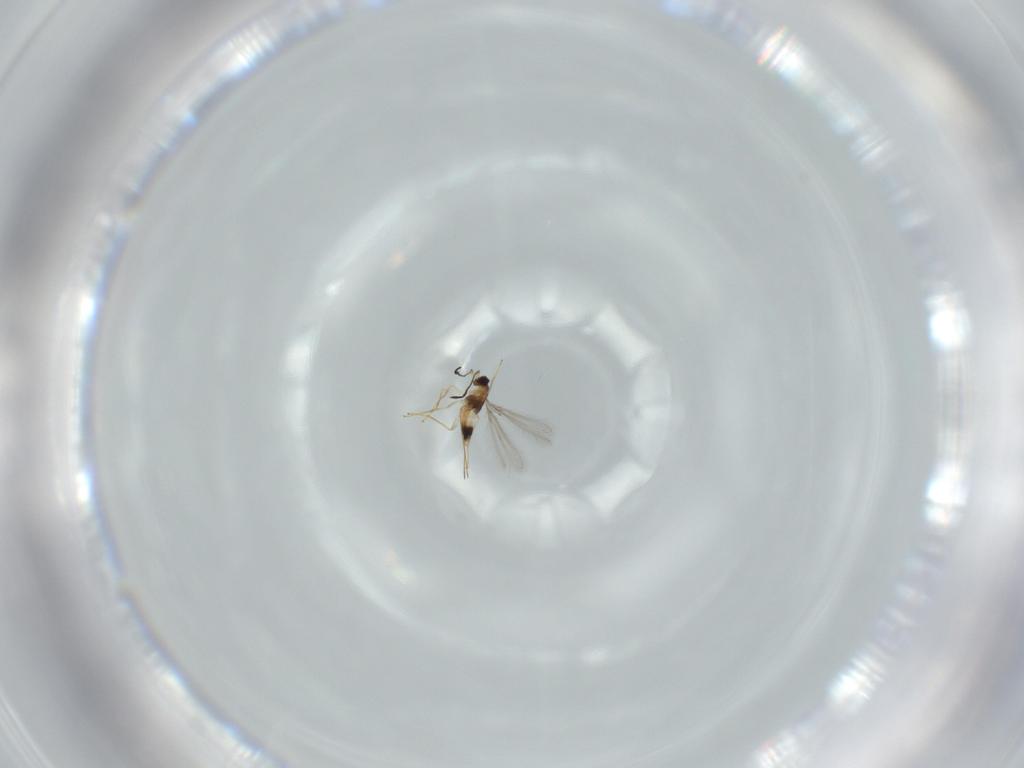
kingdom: Animalia
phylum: Arthropoda
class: Insecta
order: Hymenoptera
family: Mymaridae
